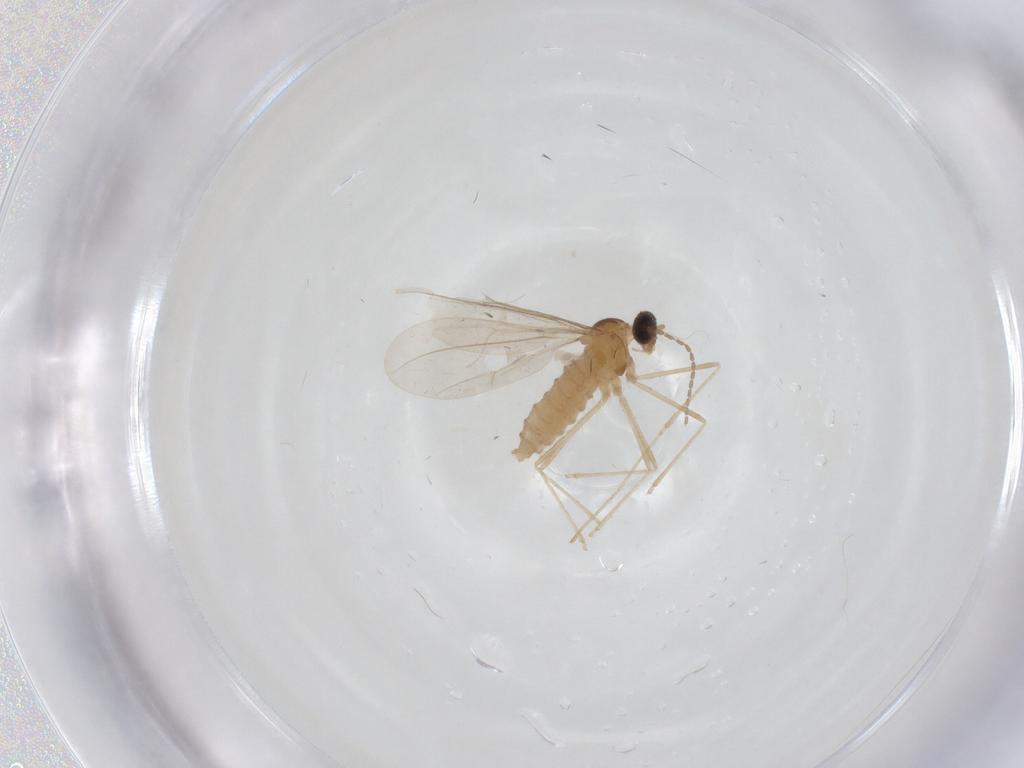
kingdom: Animalia
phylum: Arthropoda
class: Insecta
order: Diptera
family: Cecidomyiidae
